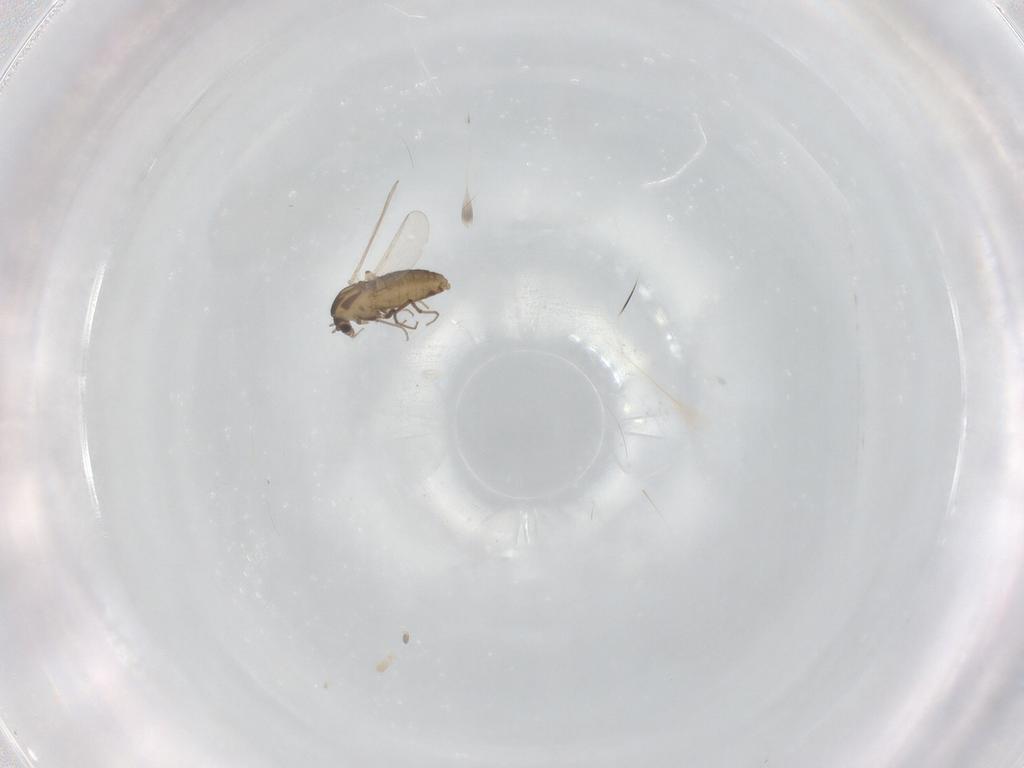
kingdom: Animalia
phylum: Arthropoda
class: Insecta
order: Diptera
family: Chironomidae
